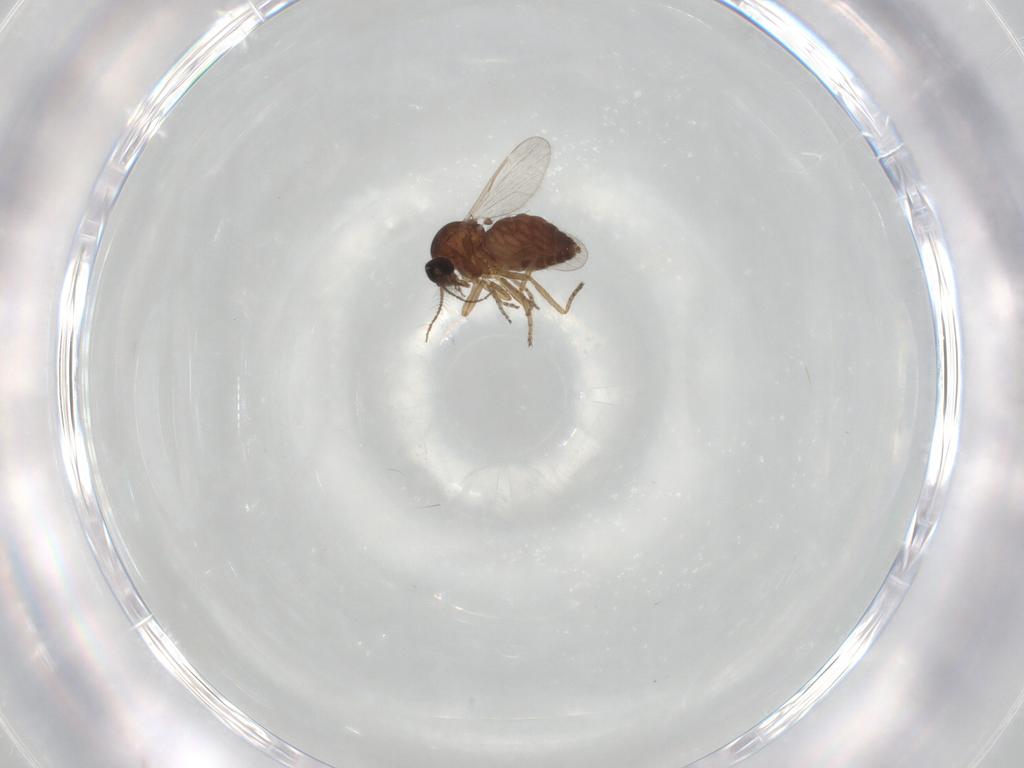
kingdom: Animalia
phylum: Arthropoda
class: Insecta
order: Diptera
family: Ceratopogonidae
